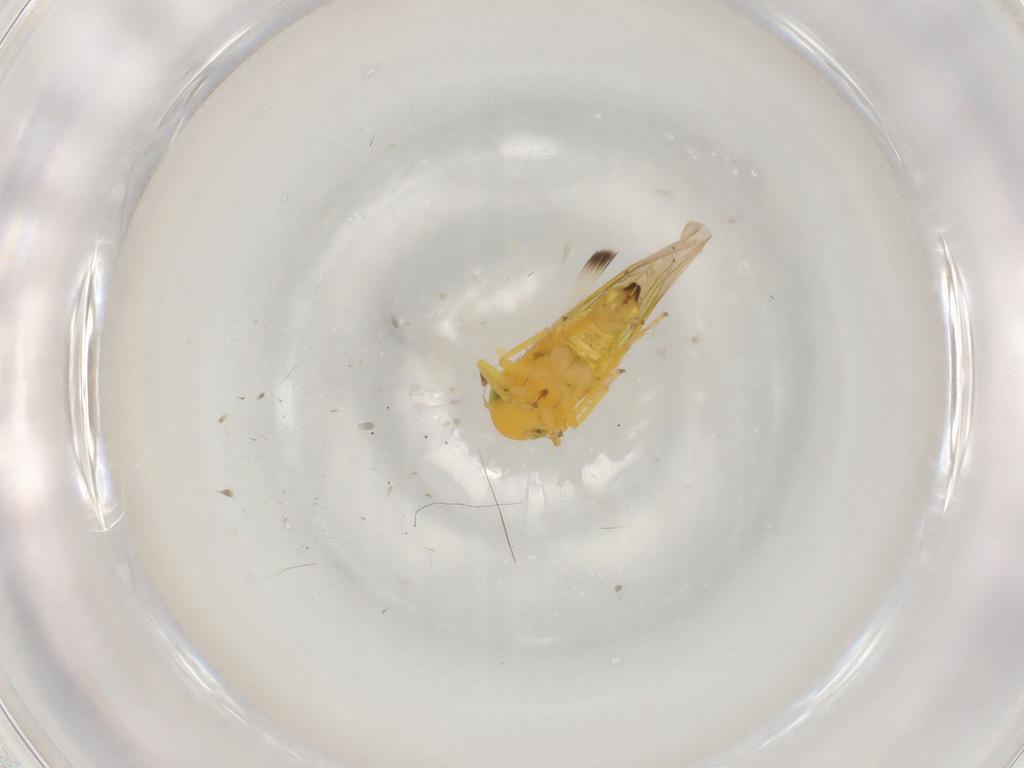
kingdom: Animalia
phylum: Arthropoda
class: Insecta
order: Hemiptera
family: Cicadellidae
